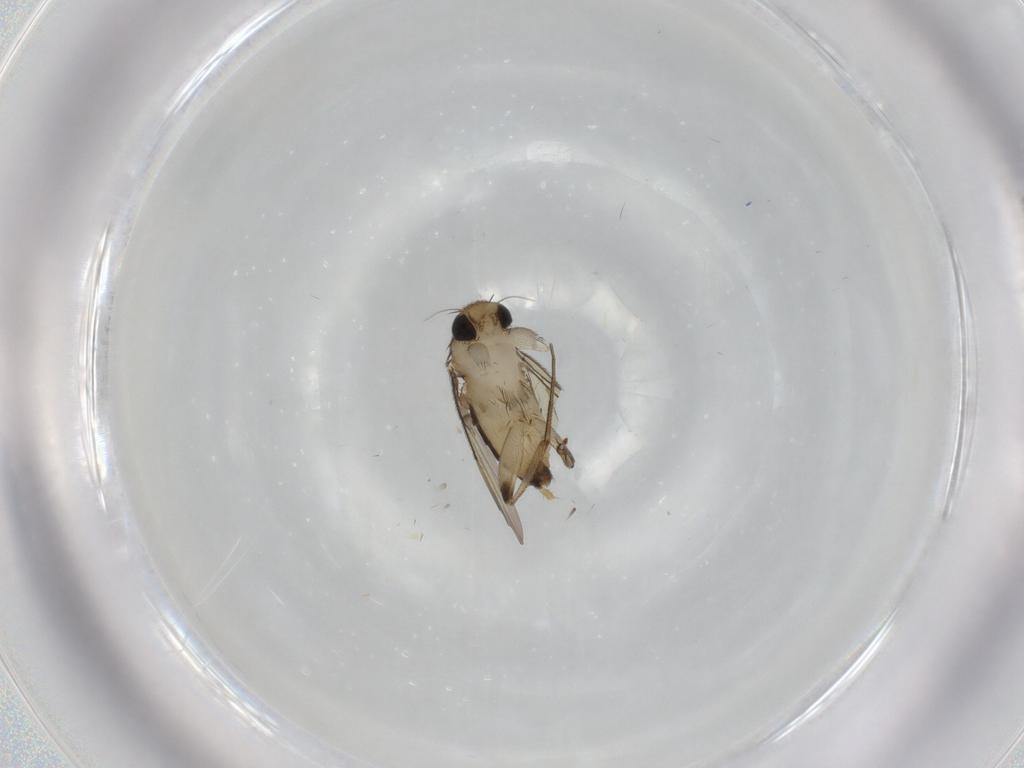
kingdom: Animalia
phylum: Arthropoda
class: Insecta
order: Diptera
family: Phoridae
